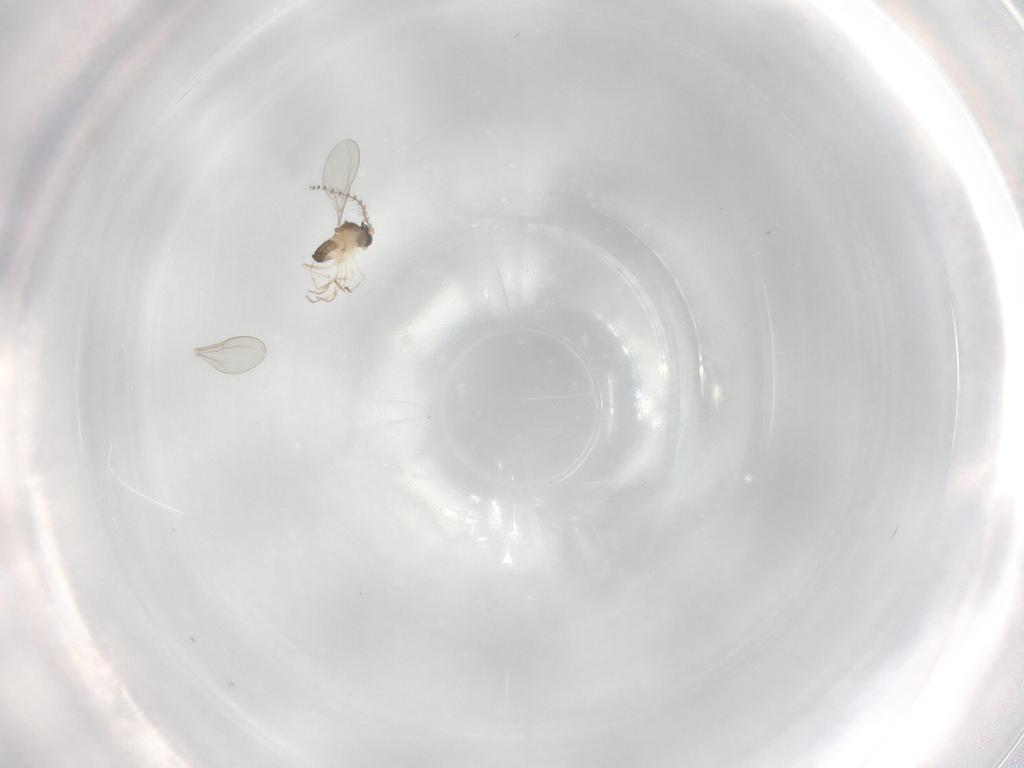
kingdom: Animalia
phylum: Arthropoda
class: Insecta
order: Diptera
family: Cecidomyiidae
